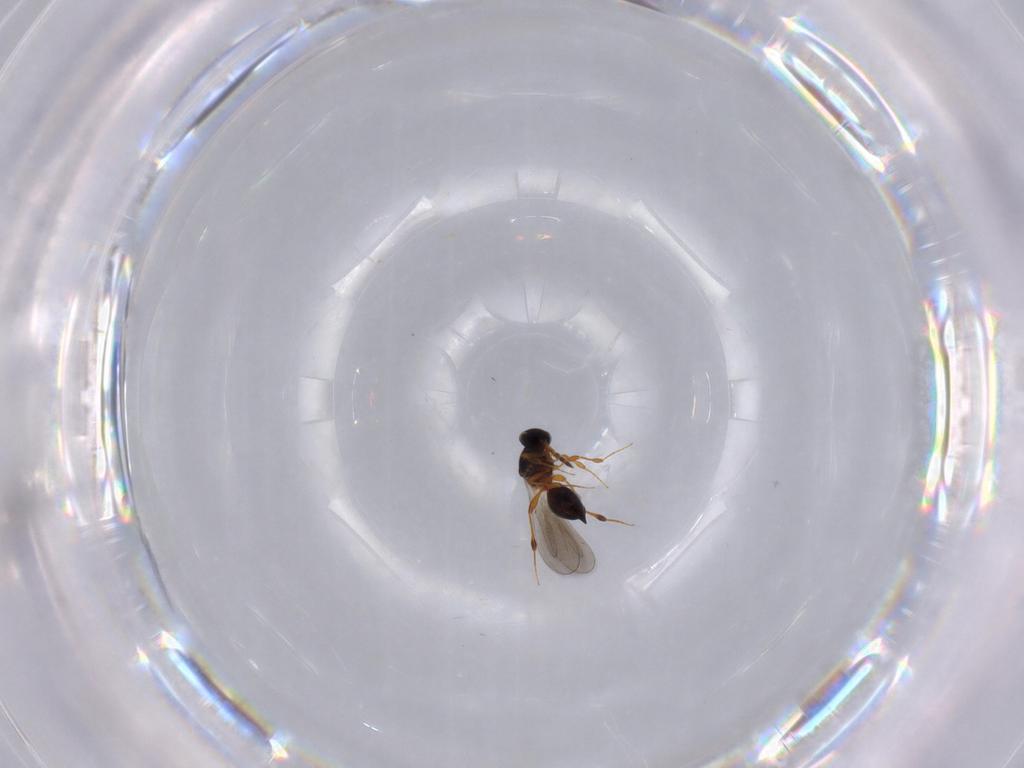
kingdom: Animalia
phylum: Arthropoda
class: Insecta
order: Hymenoptera
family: Platygastridae
